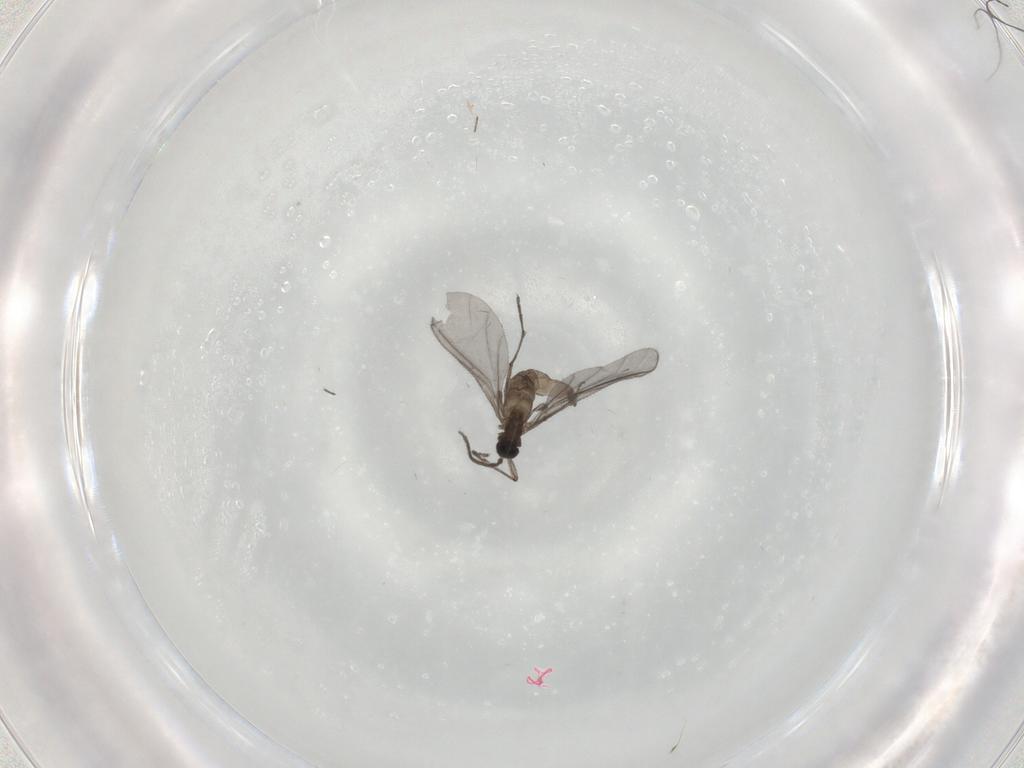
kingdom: Animalia
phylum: Arthropoda
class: Insecta
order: Diptera
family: Sciaridae
